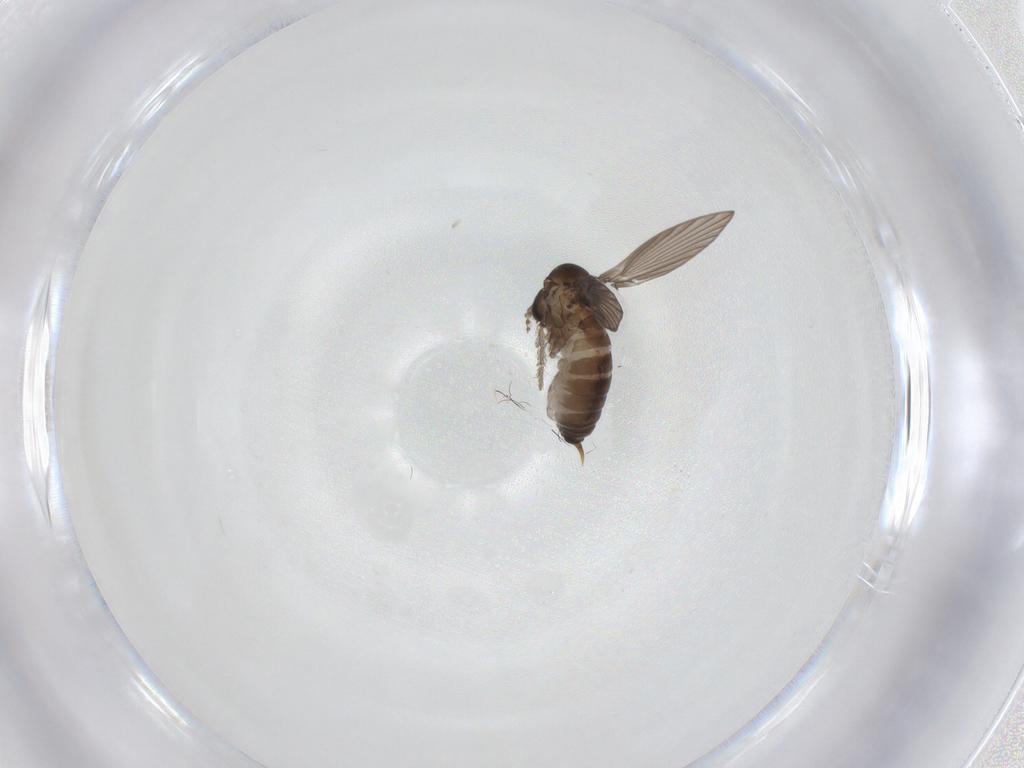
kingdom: Animalia
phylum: Arthropoda
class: Insecta
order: Diptera
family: Psychodidae
